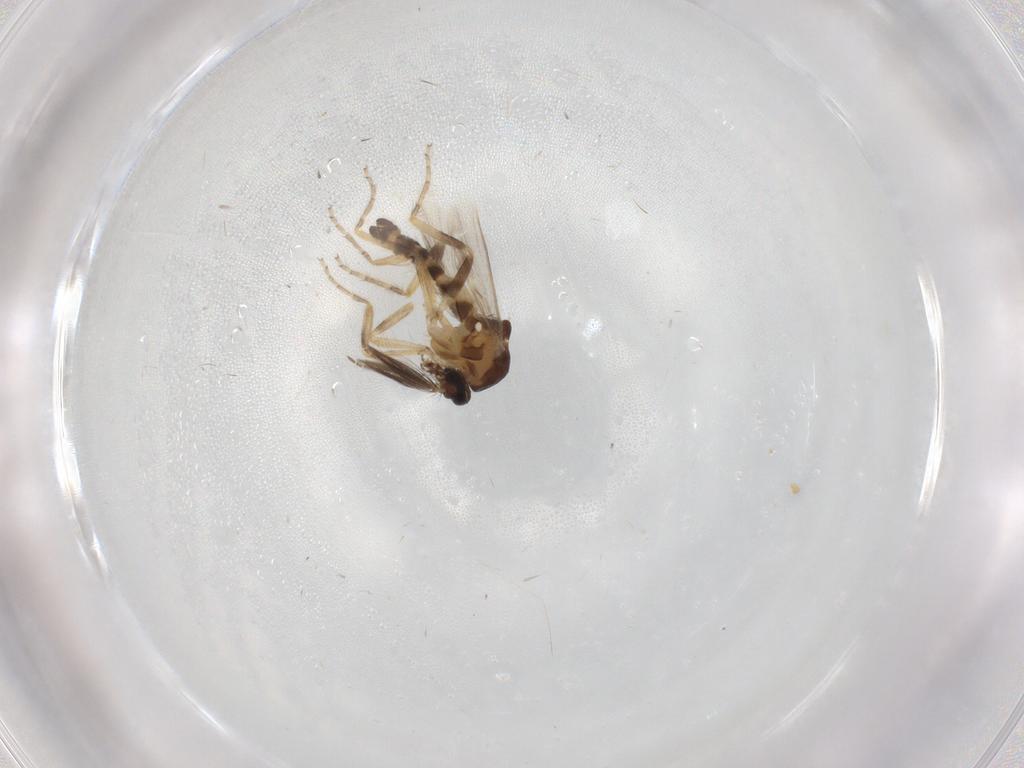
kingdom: Animalia
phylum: Arthropoda
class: Insecta
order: Diptera
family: Ceratopogonidae
